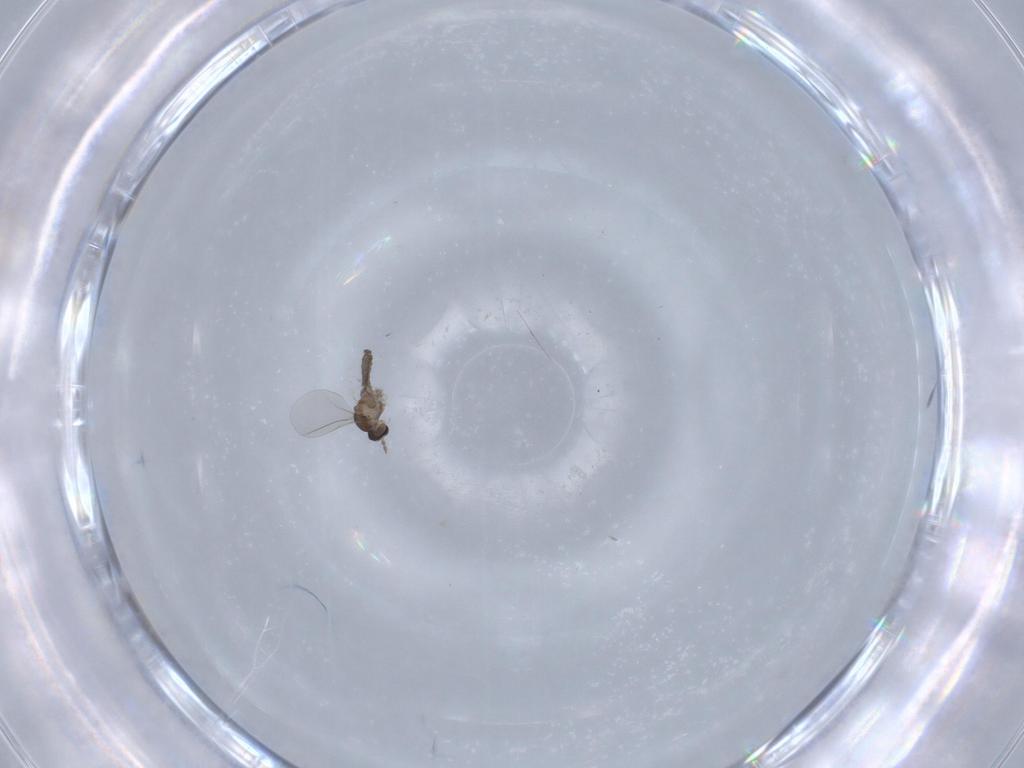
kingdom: Animalia
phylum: Arthropoda
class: Insecta
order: Diptera
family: Cecidomyiidae
